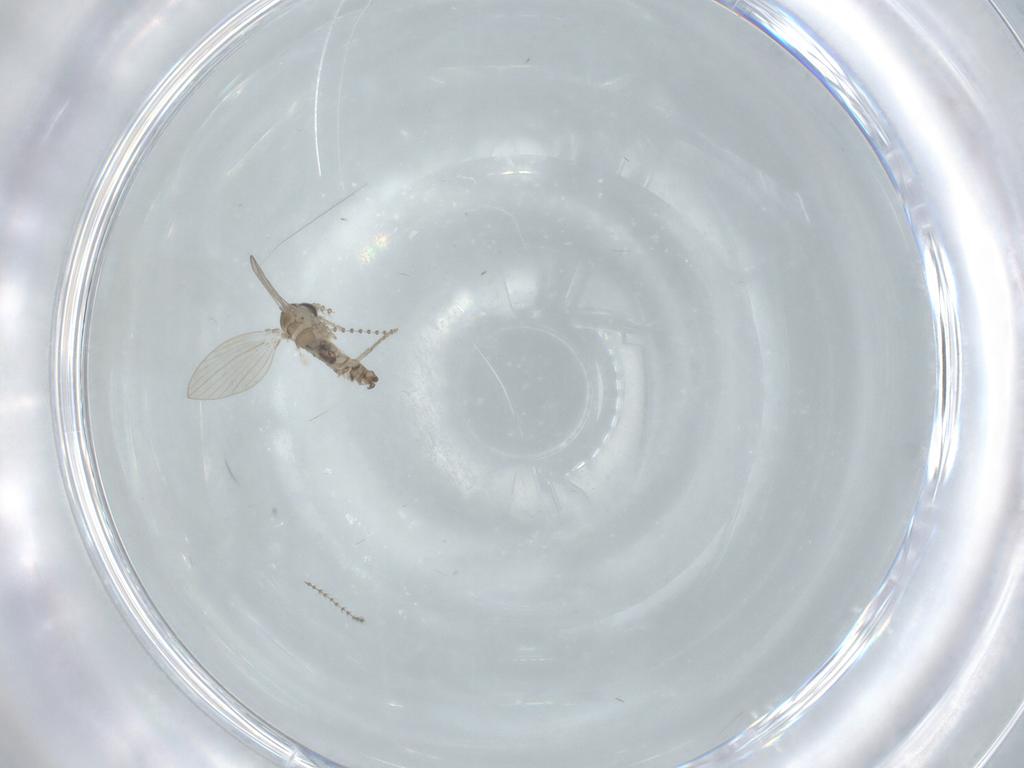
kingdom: Animalia
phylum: Arthropoda
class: Insecta
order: Diptera
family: Psychodidae
